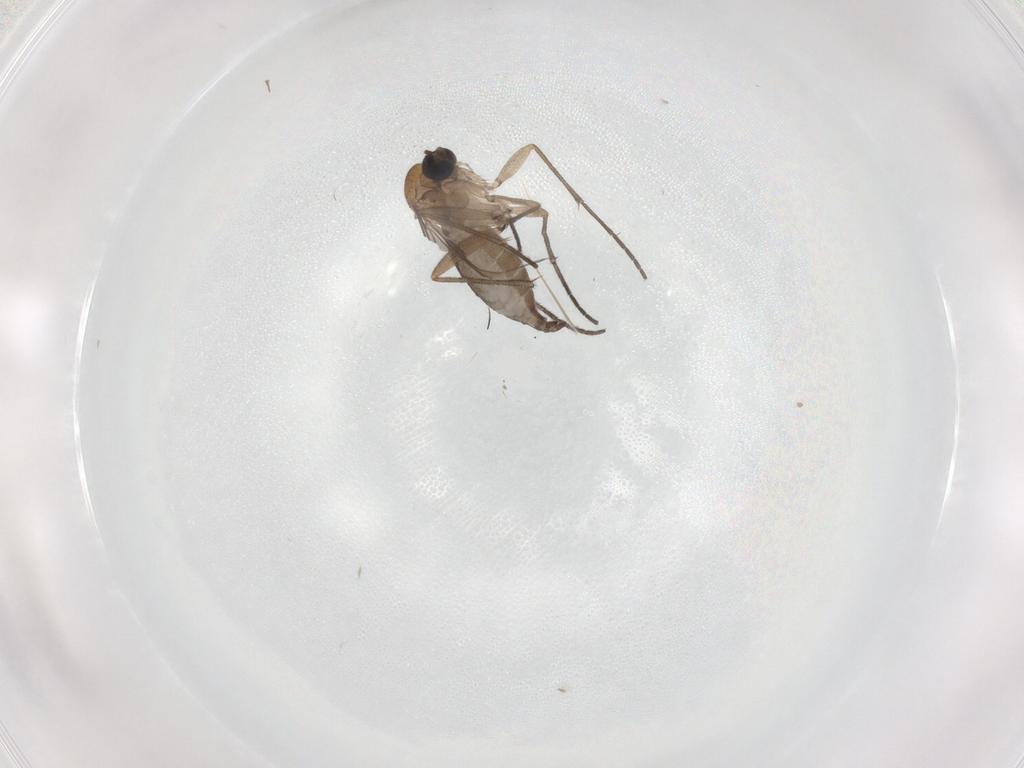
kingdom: Animalia
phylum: Arthropoda
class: Insecta
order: Diptera
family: Sciaridae
